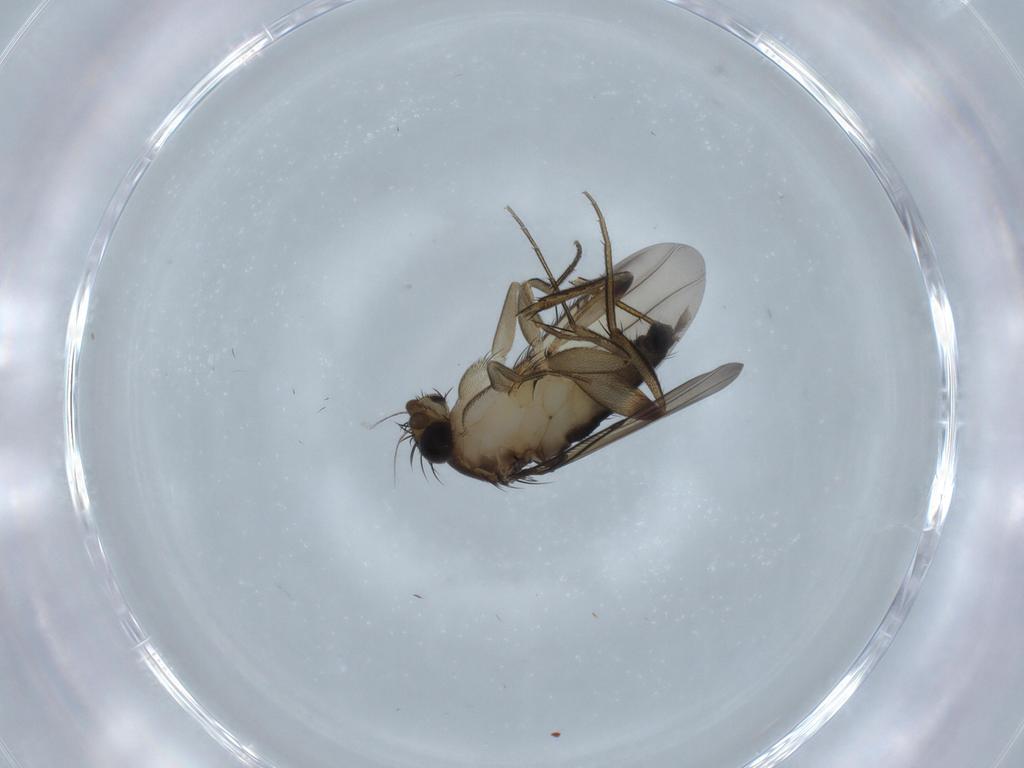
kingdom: Animalia
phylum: Arthropoda
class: Insecta
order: Diptera
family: Phoridae
